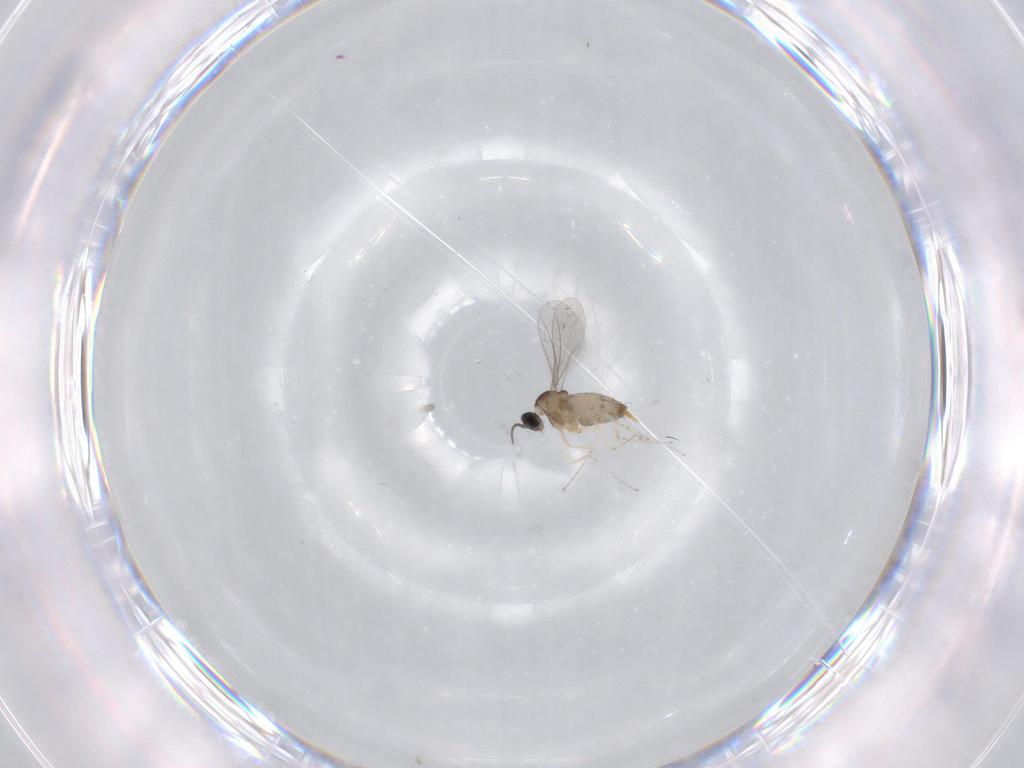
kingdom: Animalia
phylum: Arthropoda
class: Insecta
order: Diptera
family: Cecidomyiidae
